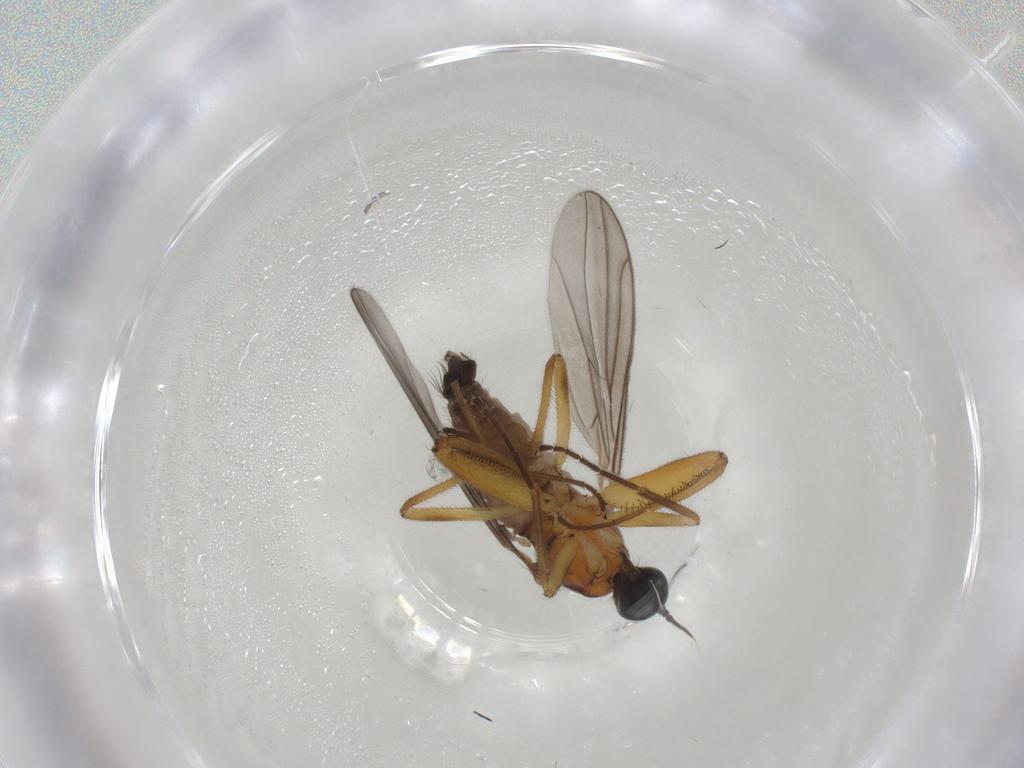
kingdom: Animalia
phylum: Arthropoda
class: Insecta
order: Diptera
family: Hybotidae
